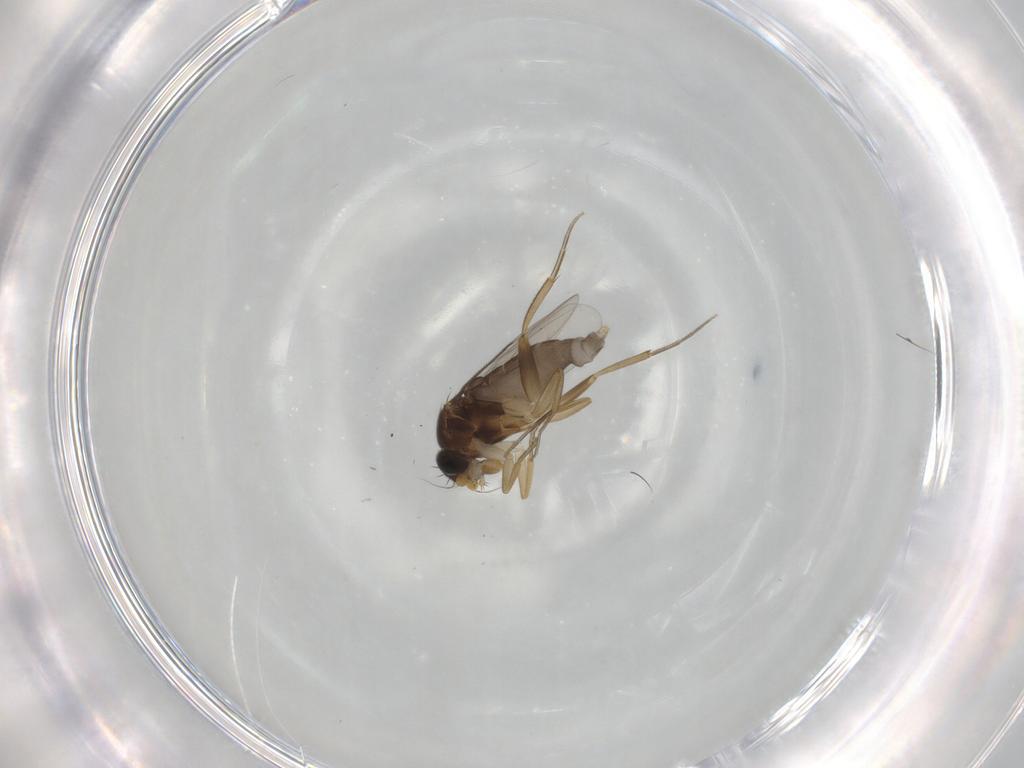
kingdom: Animalia
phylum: Arthropoda
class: Insecta
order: Diptera
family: Phoridae
